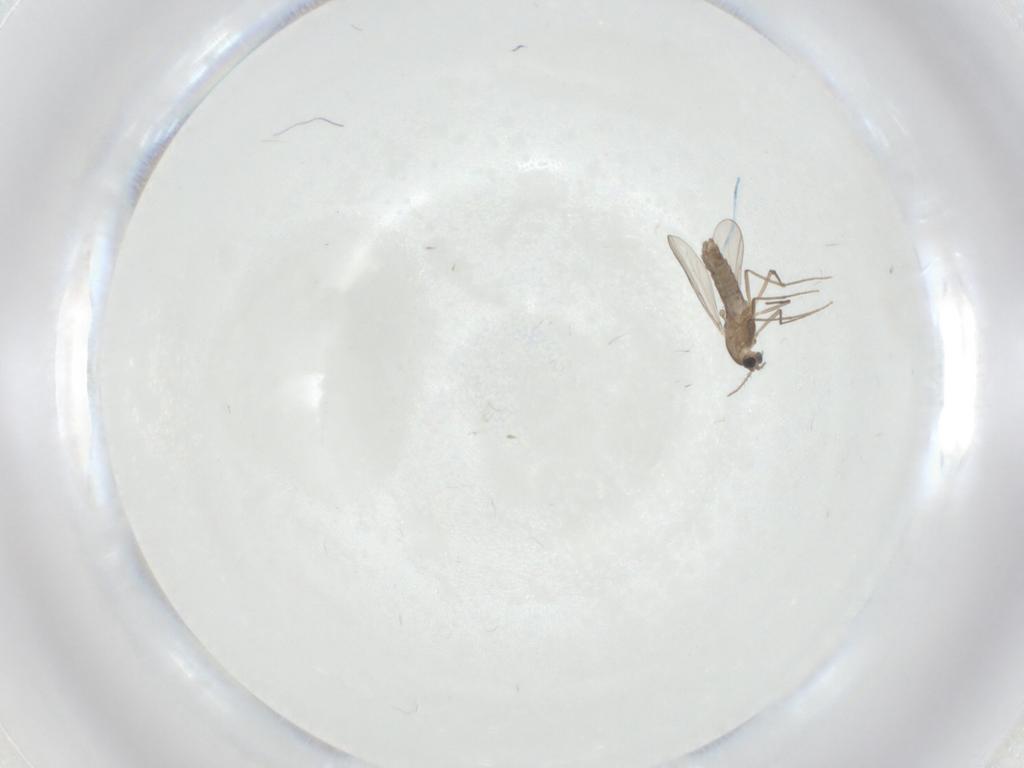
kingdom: Animalia
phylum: Arthropoda
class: Insecta
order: Diptera
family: Chironomidae
